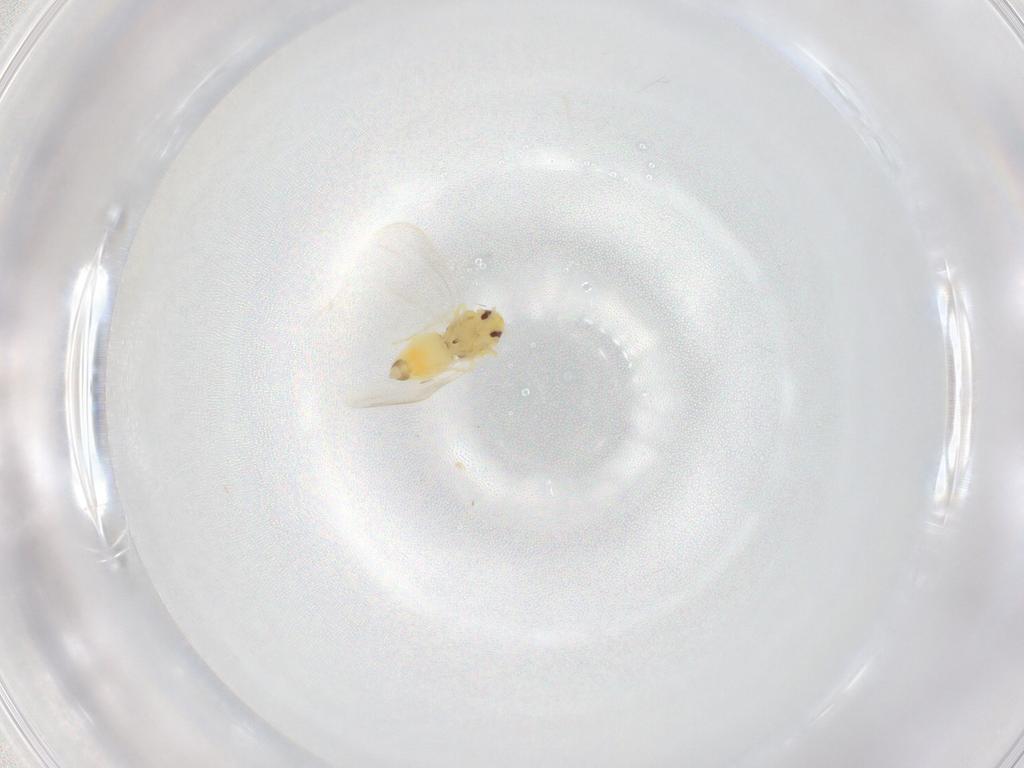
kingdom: Animalia
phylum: Arthropoda
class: Insecta
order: Hemiptera
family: Aleyrodidae
